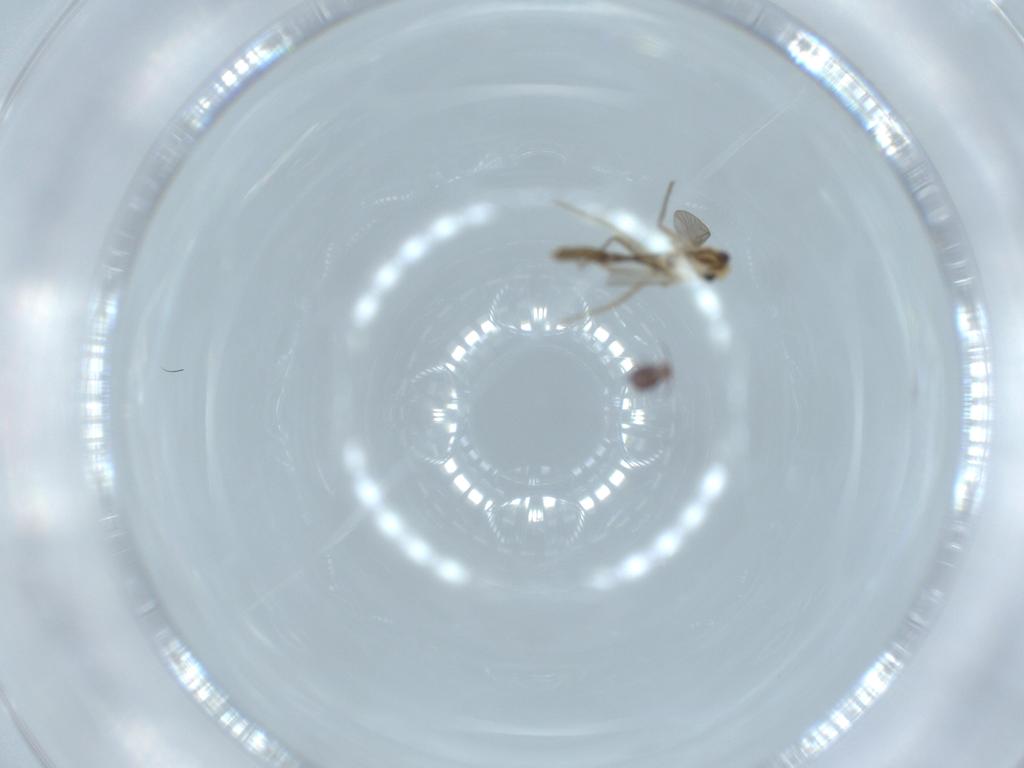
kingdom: Animalia
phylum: Arthropoda
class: Insecta
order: Diptera
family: Chironomidae
